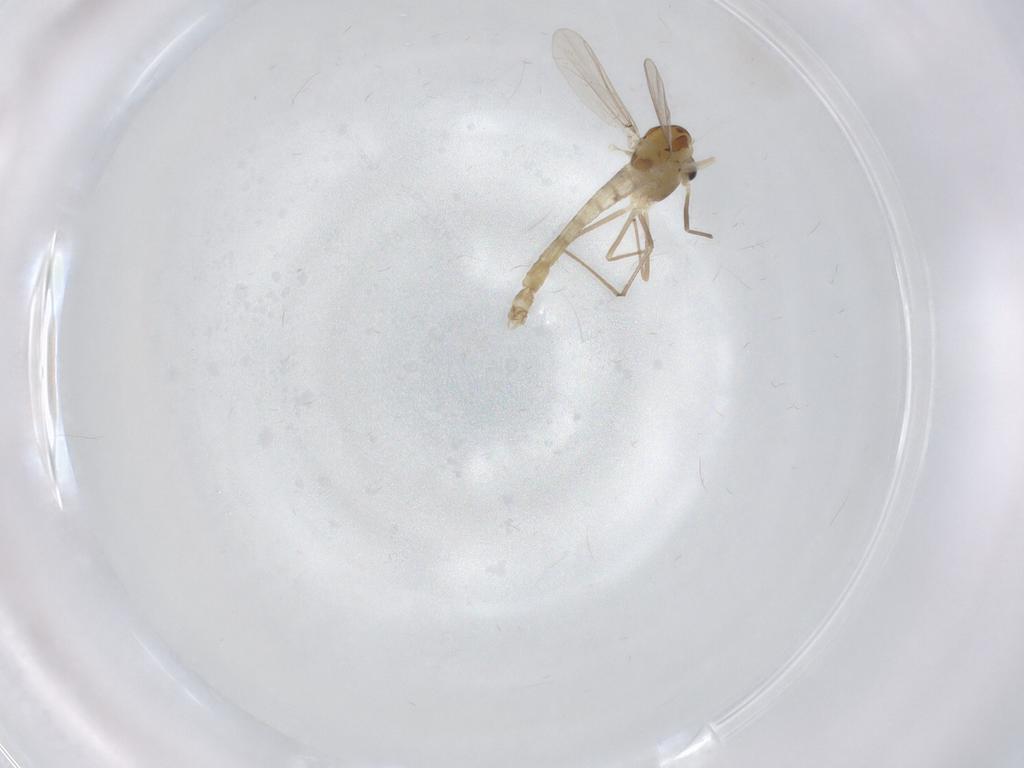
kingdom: Animalia
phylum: Arthropoda
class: Insecta
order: Diptera
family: Chironomidae
